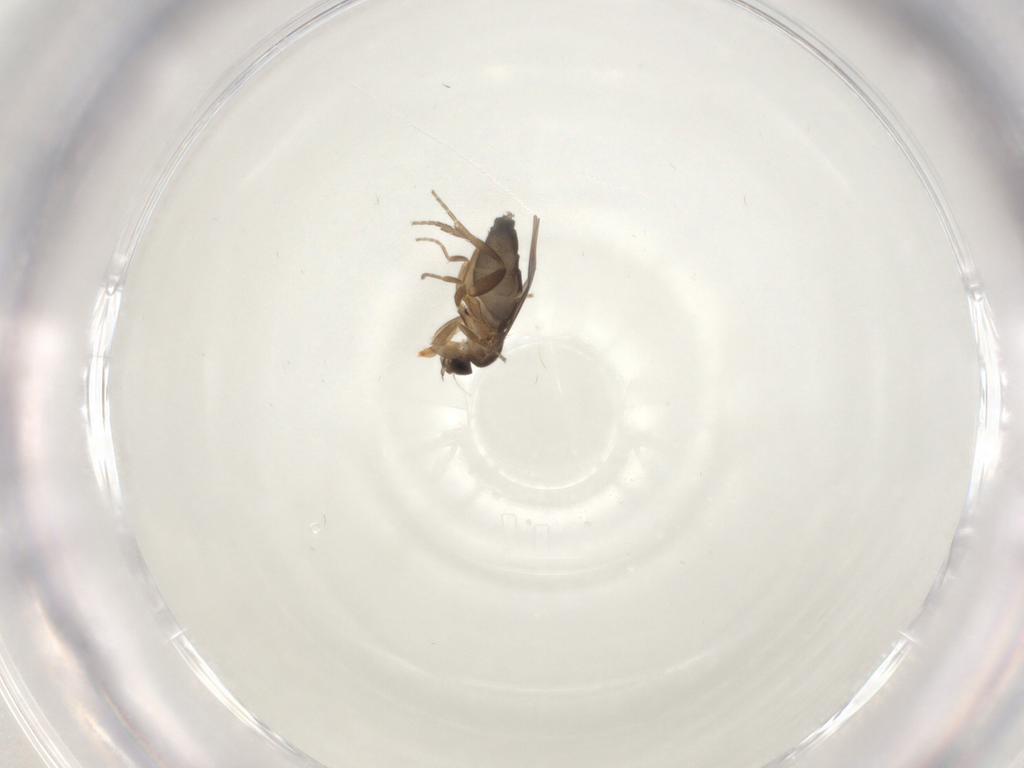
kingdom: Animalia
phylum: Arthropoda
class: Insecta
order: Diptera
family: Ceratopogonidae
